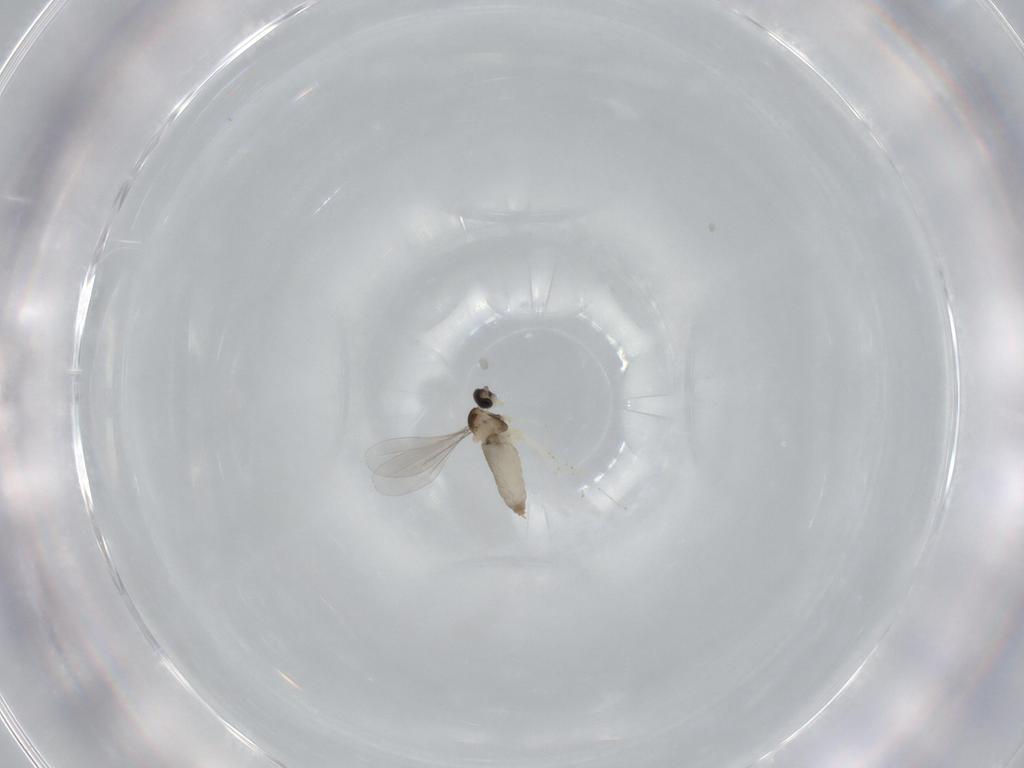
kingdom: Animalia
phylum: Arthropoda
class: Insecta
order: Diptera
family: Phoridae
